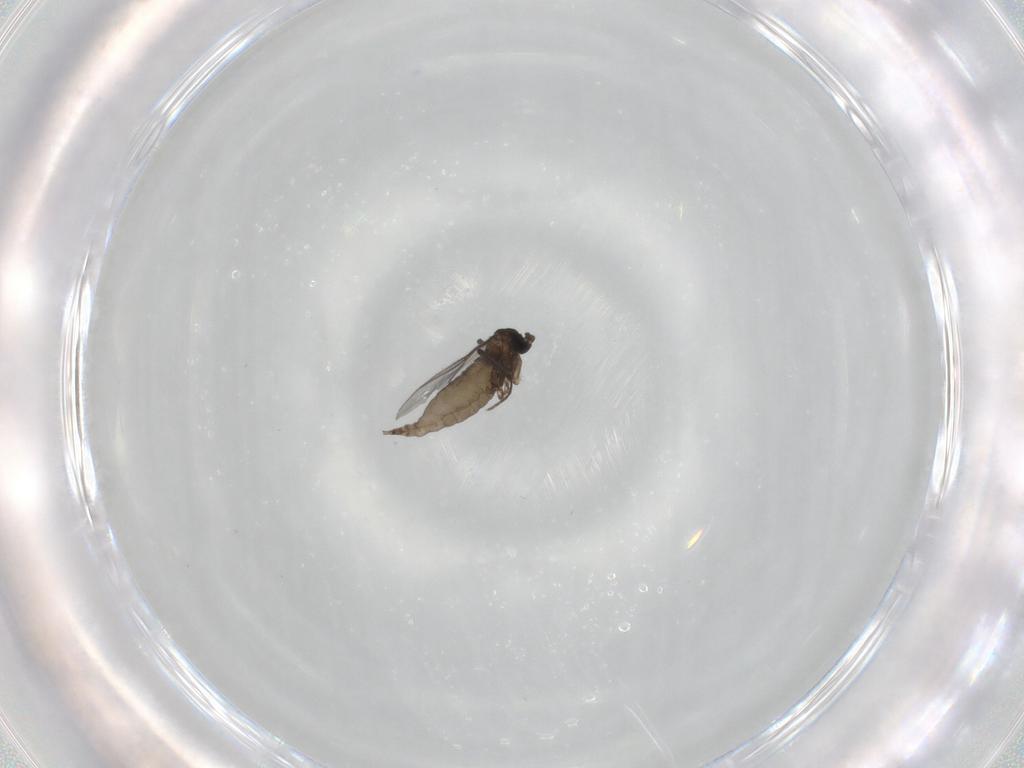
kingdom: Animalia
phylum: Arthropoda
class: Insecta
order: Diptera
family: Sciaridae
